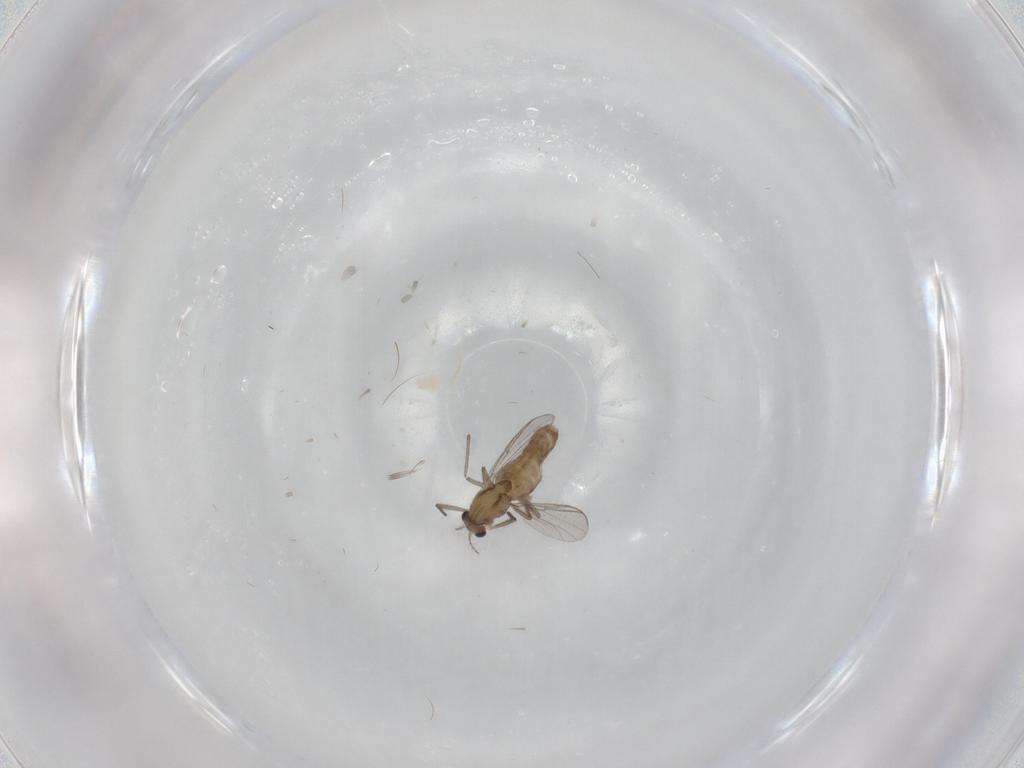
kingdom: Animalia
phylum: Arthropoda
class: Insecta
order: Diptera
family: Chironomidae
